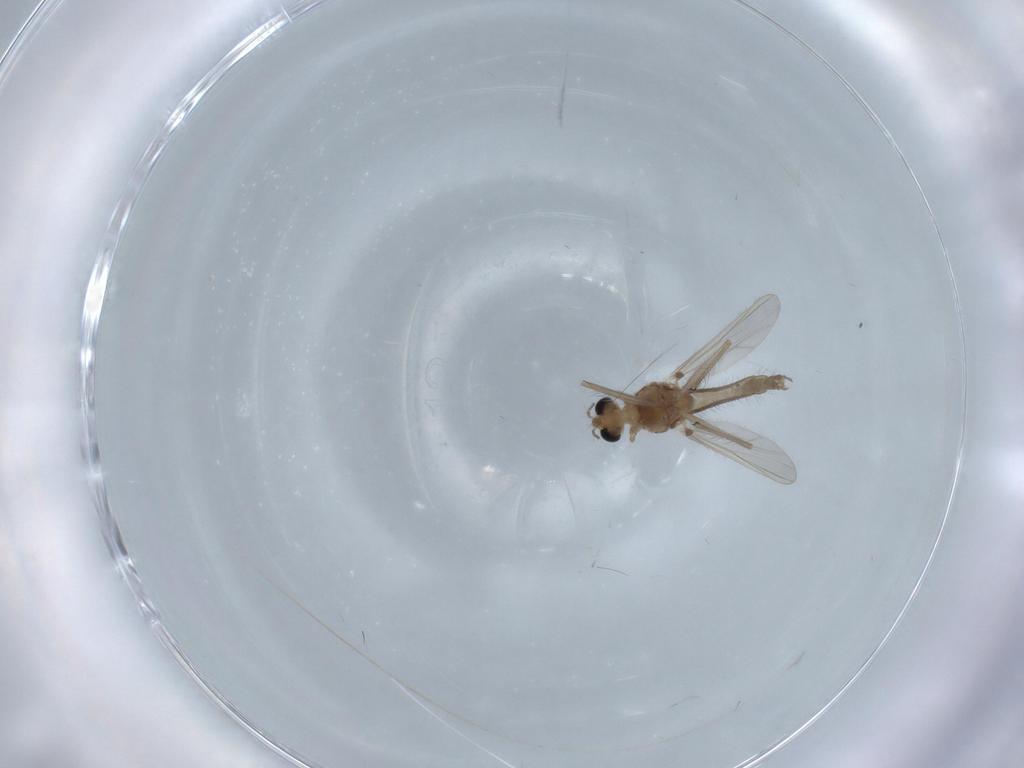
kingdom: Animalia
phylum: Arthropoda
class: Insecta
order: Diptera
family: Chironomidae
